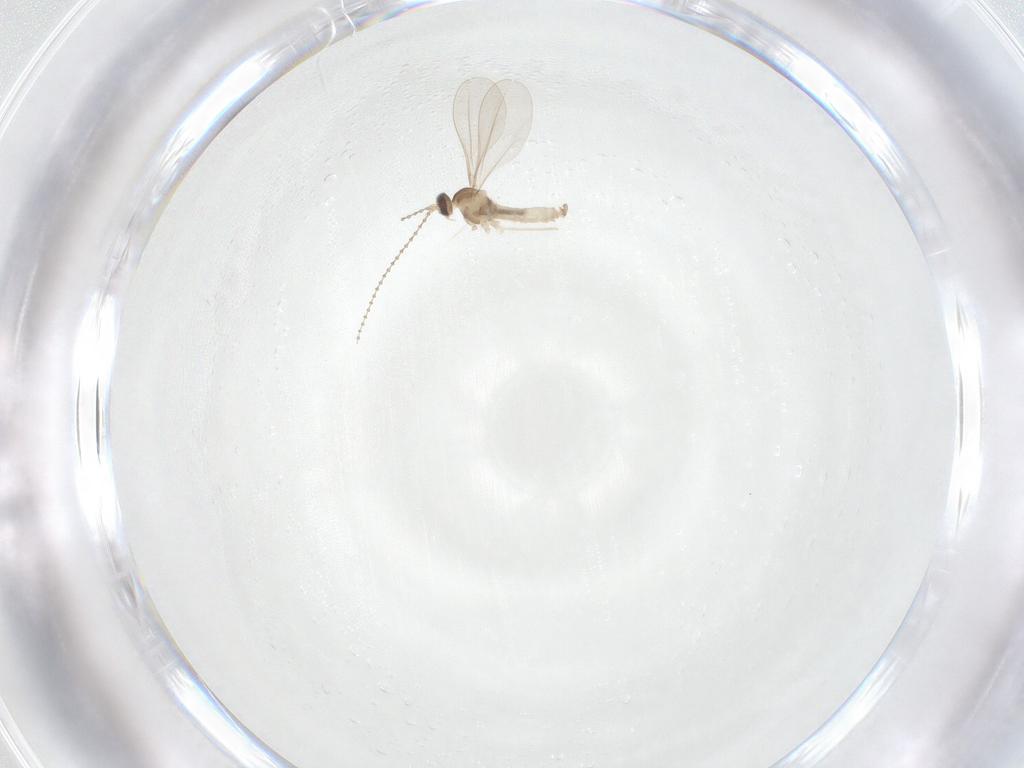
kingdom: Animalia
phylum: Arthropoda
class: Insecta
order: Diptera
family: Cecidomyiidae
